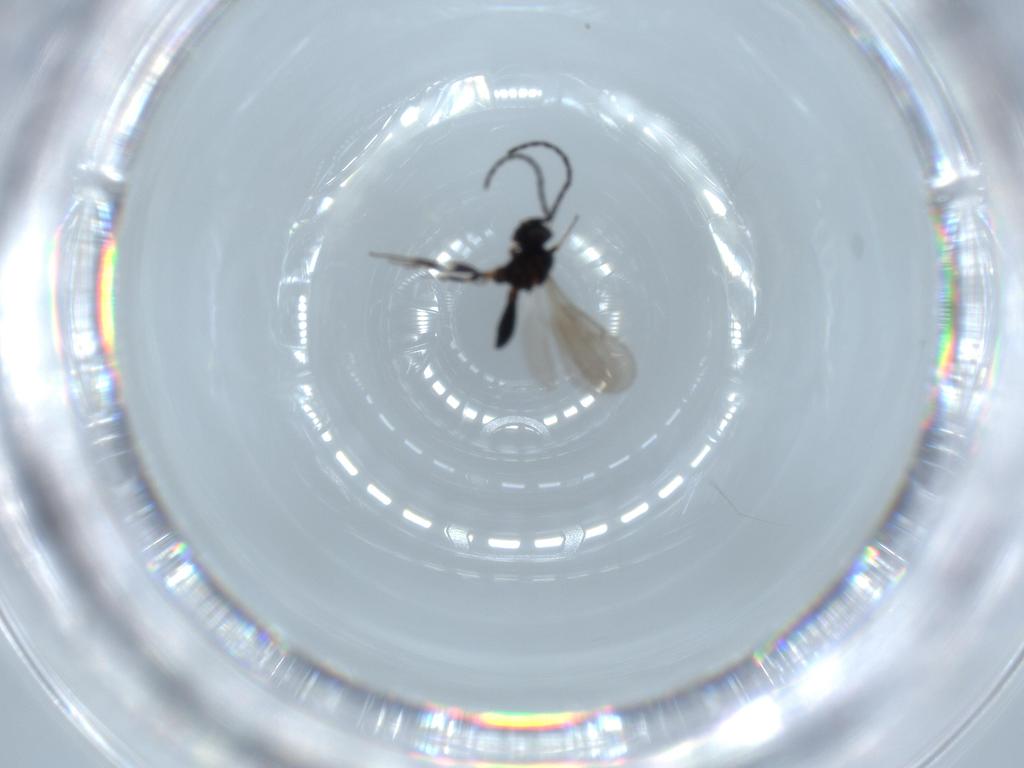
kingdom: Animalia
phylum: Arthropoda
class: Insecta
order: Hymenoptera
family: Scelionidae
